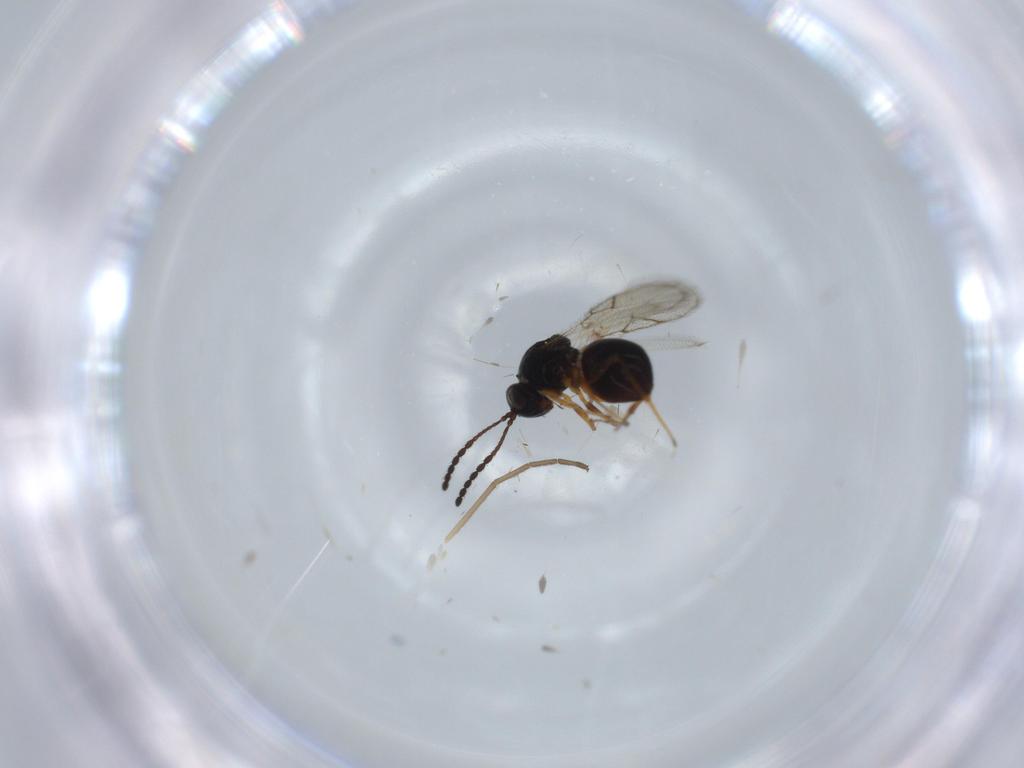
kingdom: Animalia
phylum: Arthropoda
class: Insecta
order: Hymenoptera
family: Figitidae
